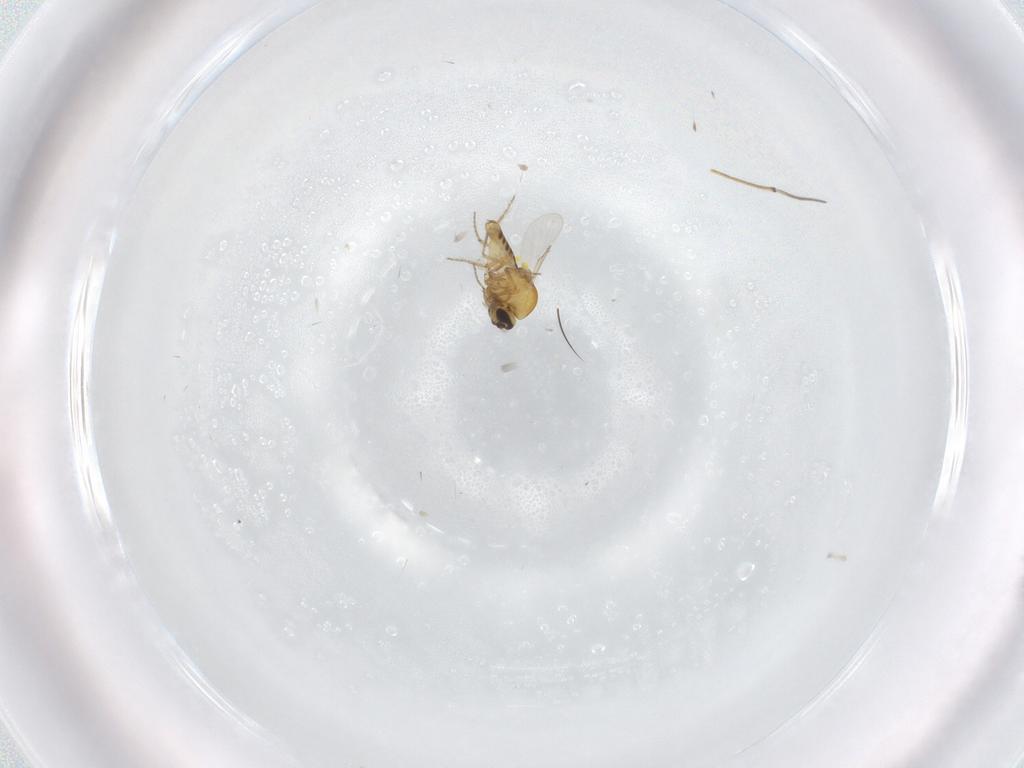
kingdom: Animalia
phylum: Arthropoda
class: Insecta
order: Diptera
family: Ceratopogonidae
